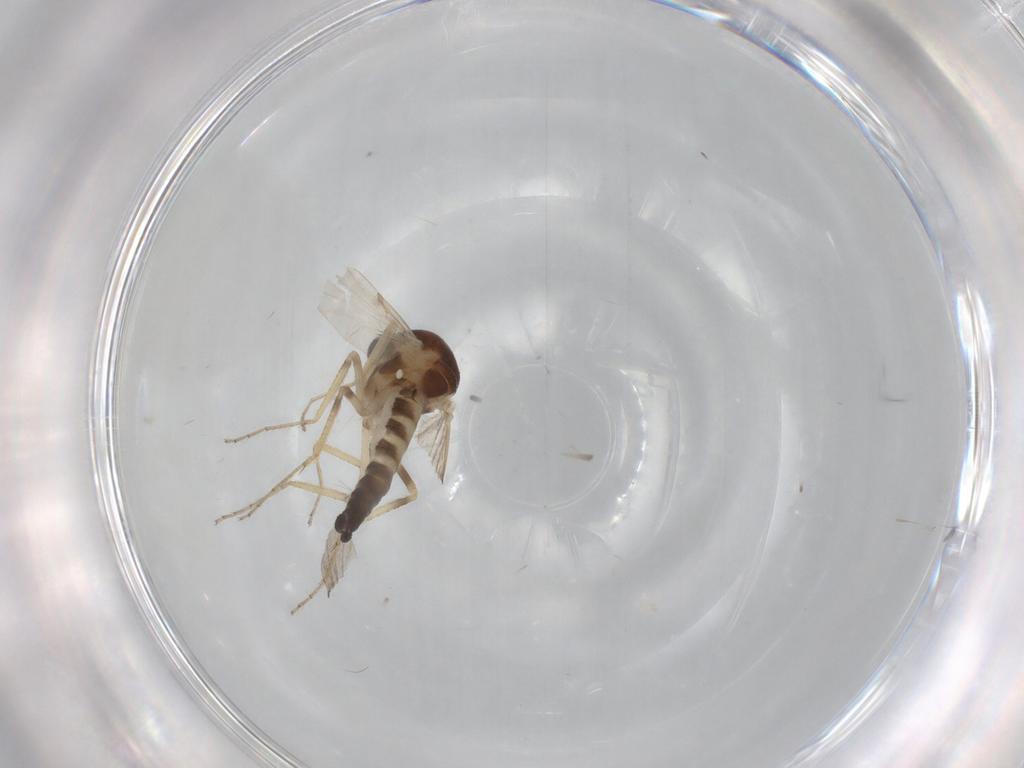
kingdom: Animalia
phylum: Arthropoda
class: Insecta
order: Diptera
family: Cecidomyiidae
